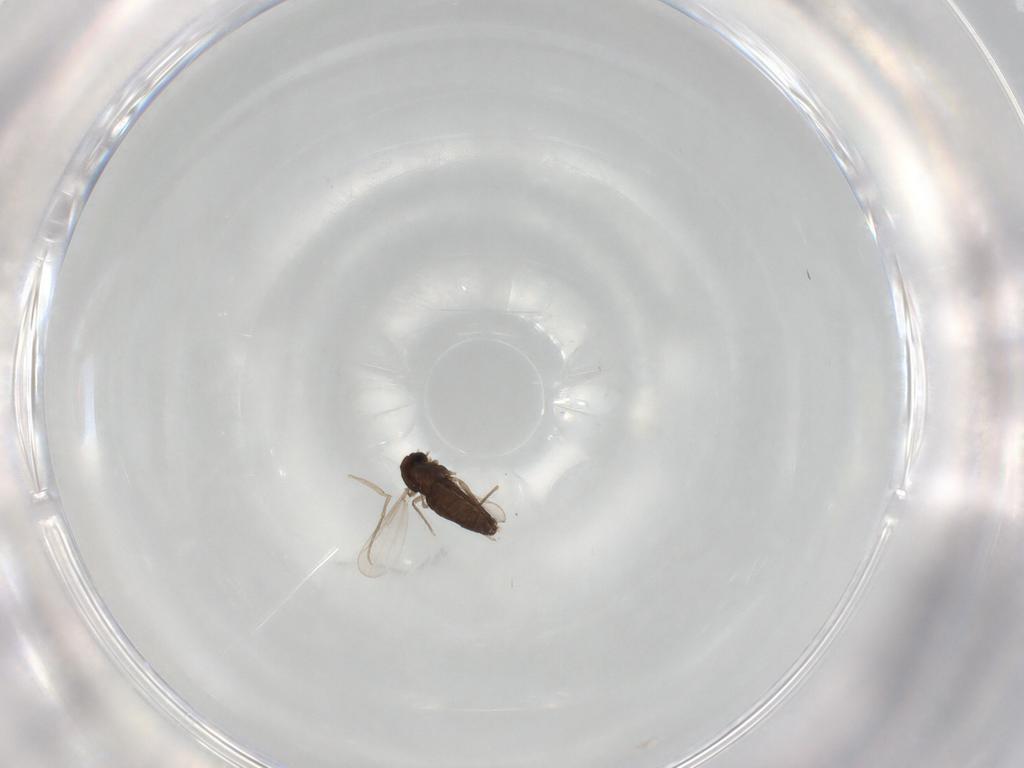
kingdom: Animalia
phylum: Arthropoda
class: Insecta
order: Diptera
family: Phoridae
